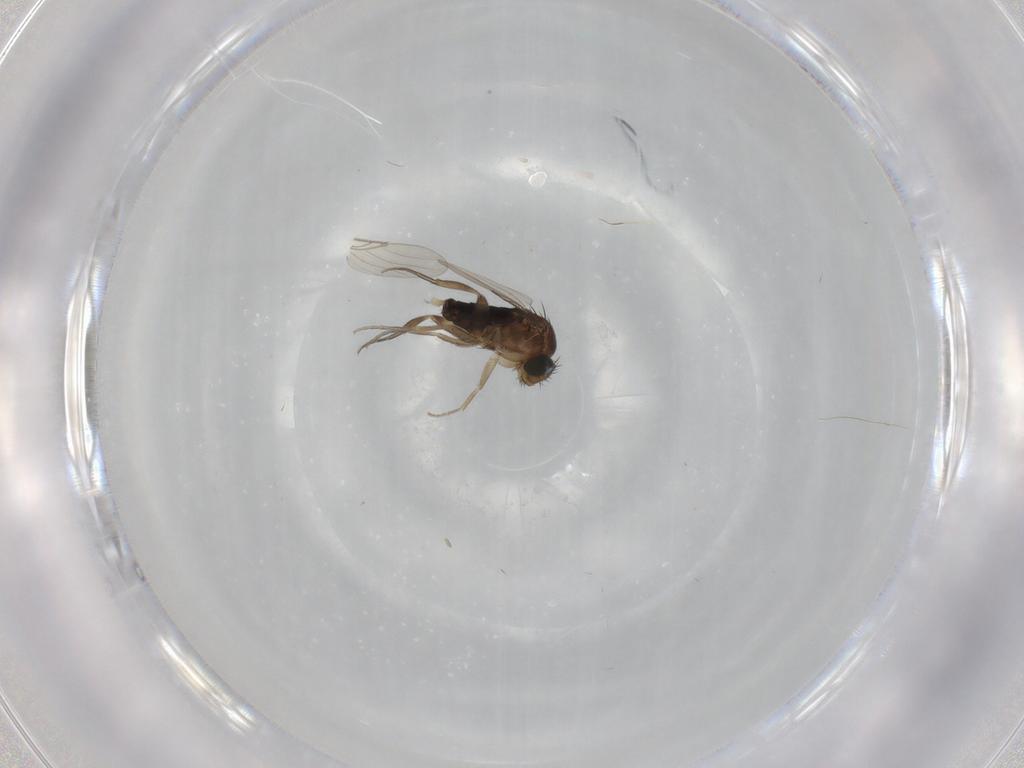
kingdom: Animalia
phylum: Arthropoda
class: Insecta
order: Diptera
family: Phoridae
